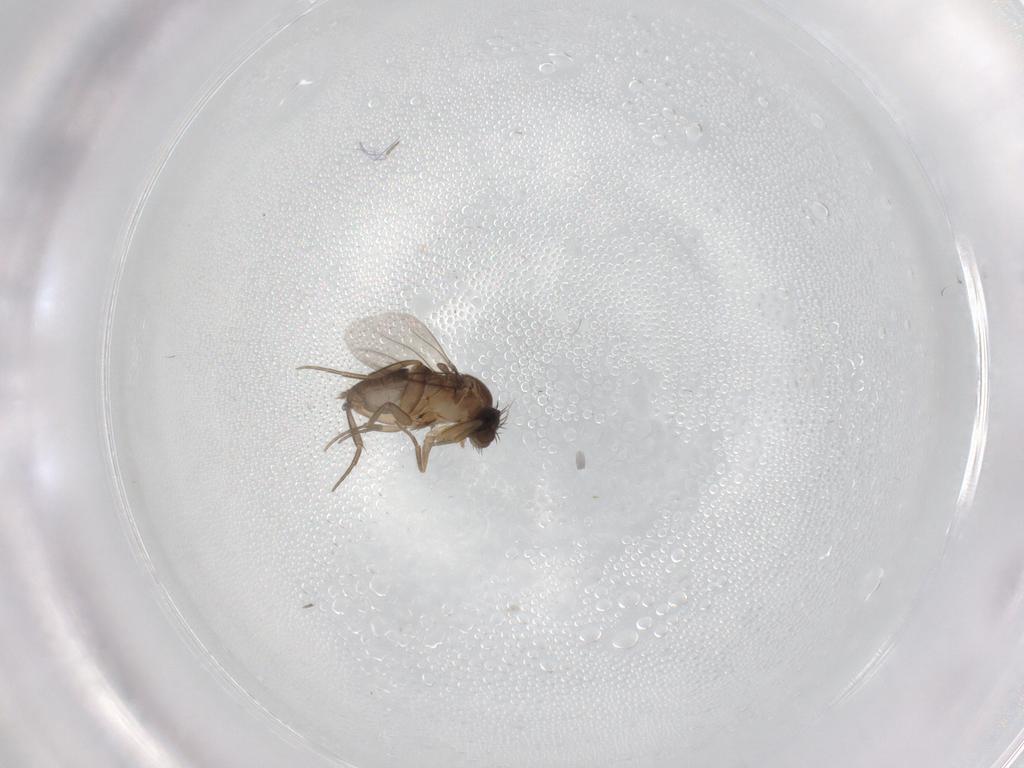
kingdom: Animalia
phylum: Arthropoda
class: Insecta
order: Diptera
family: Phoridae
